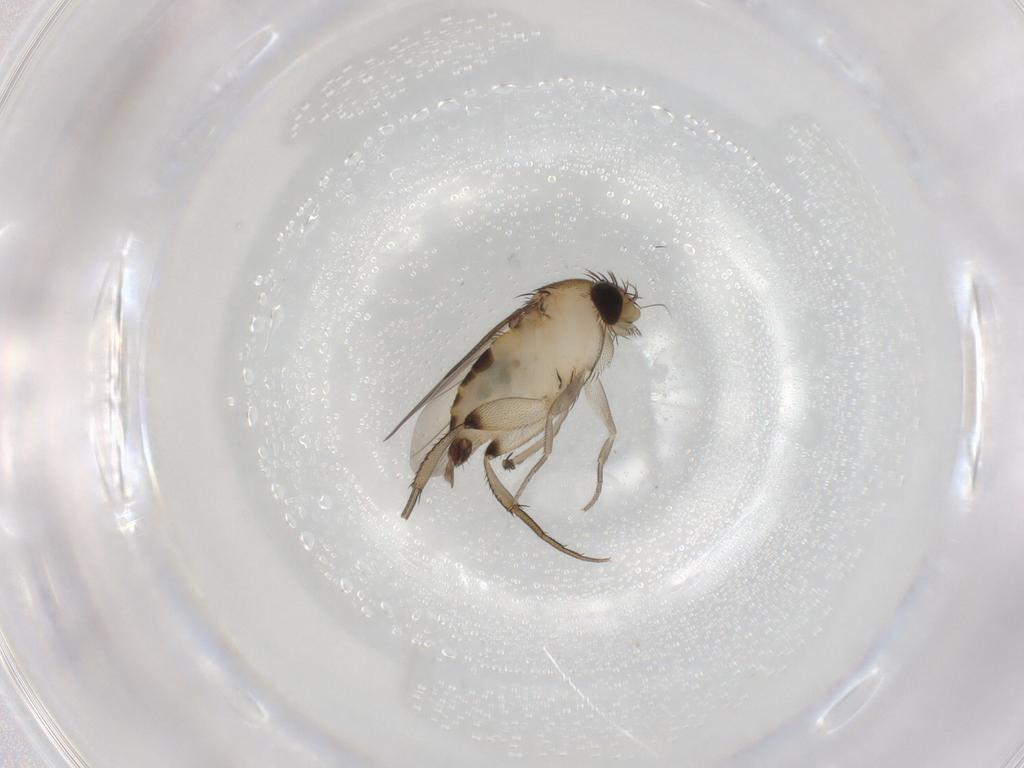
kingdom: Animalia
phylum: Arthropoda
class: Insecta
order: Diptera
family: Phoridae
